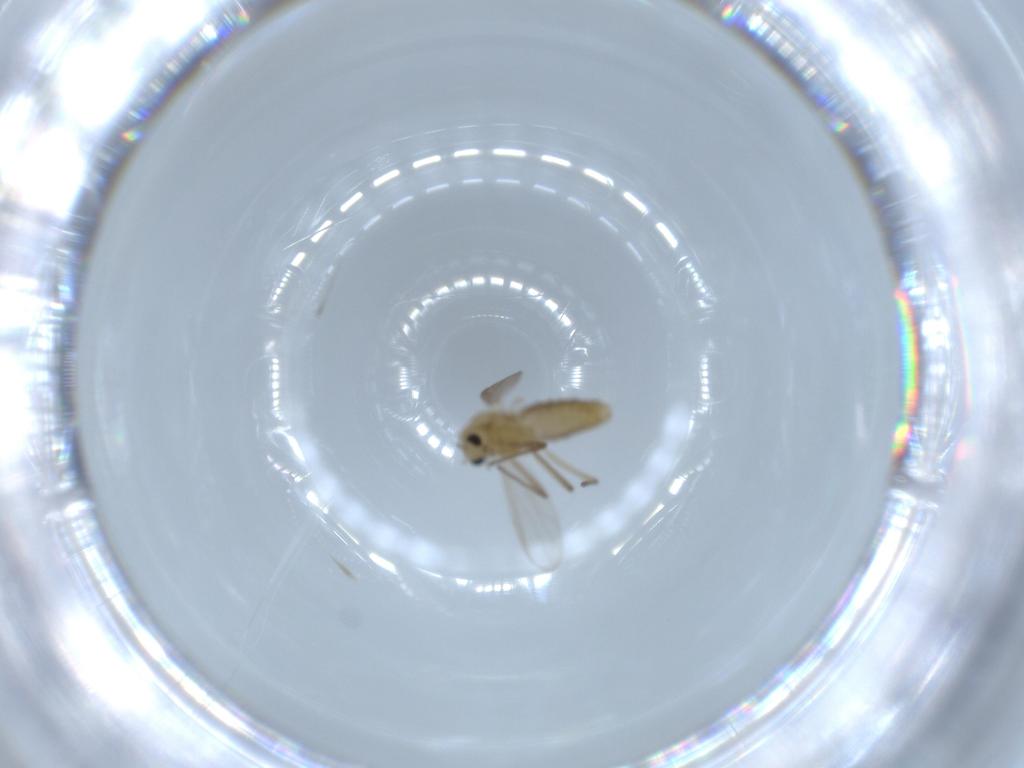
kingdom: Animalia
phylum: Arthropoda
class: Insecta
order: Diptera
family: Chironomidae
